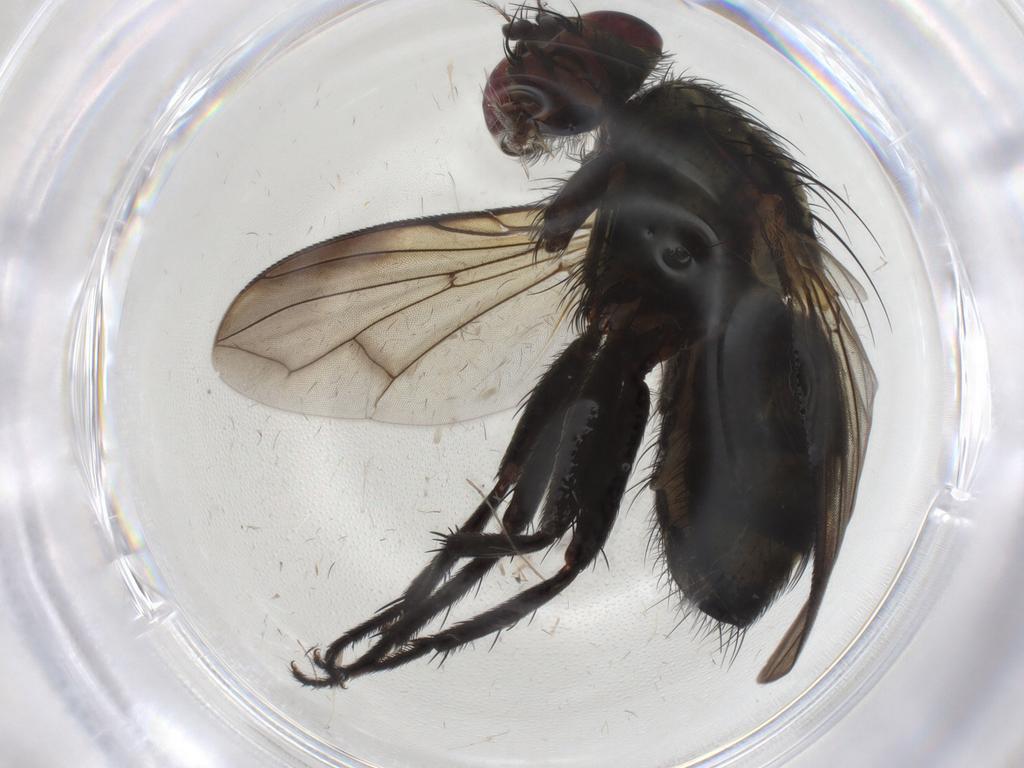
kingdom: Animalia
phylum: Arthropoda
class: Insecta
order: Diptera
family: Sarcophagidae
